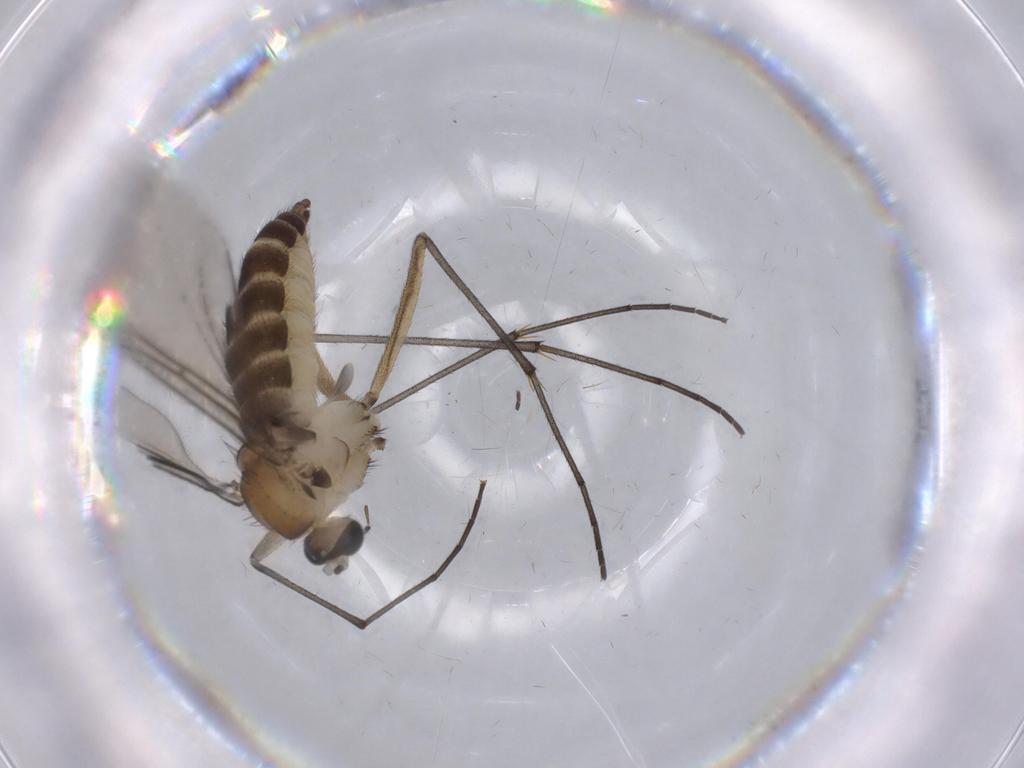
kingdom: Animalia
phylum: Arthropoda
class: Insecta
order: Diptera
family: Sciaridae
